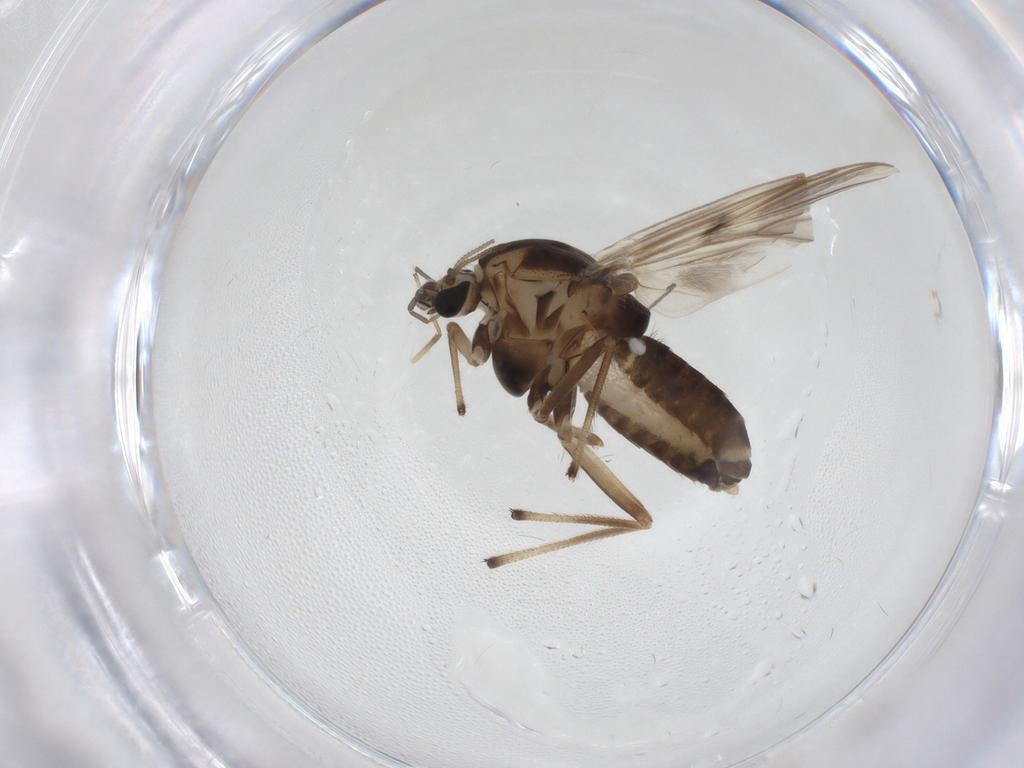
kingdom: Animalia
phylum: Arthropoda
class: Insecta
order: Diptera
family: Chironomidae
